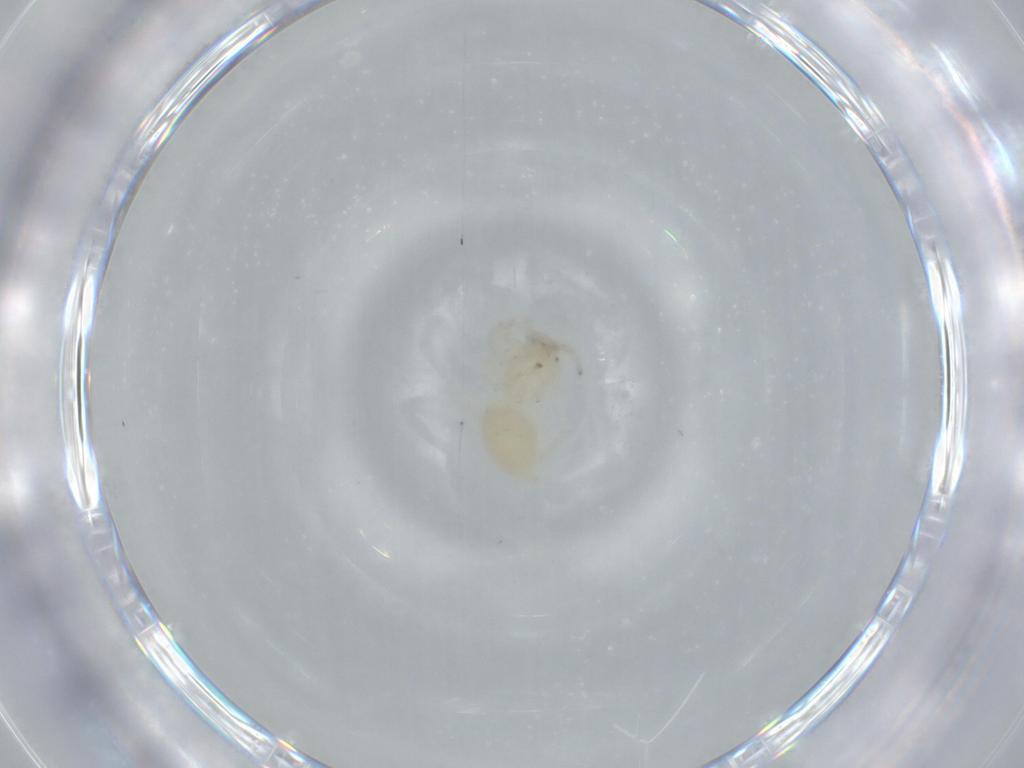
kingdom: Animalia
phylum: Arthropoda
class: Arachnida
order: Araneae
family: Anyphaenidae
